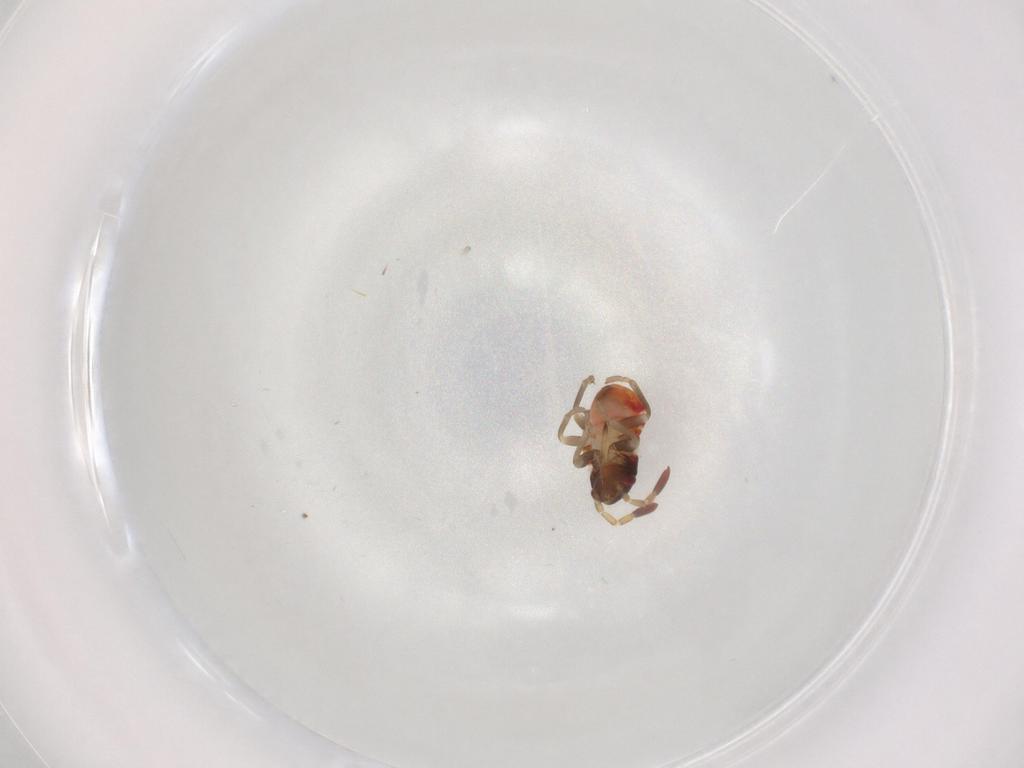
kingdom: Animalia
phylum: Arthropoda
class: Insecta
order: Hemiptera
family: Rhyparochromidae
